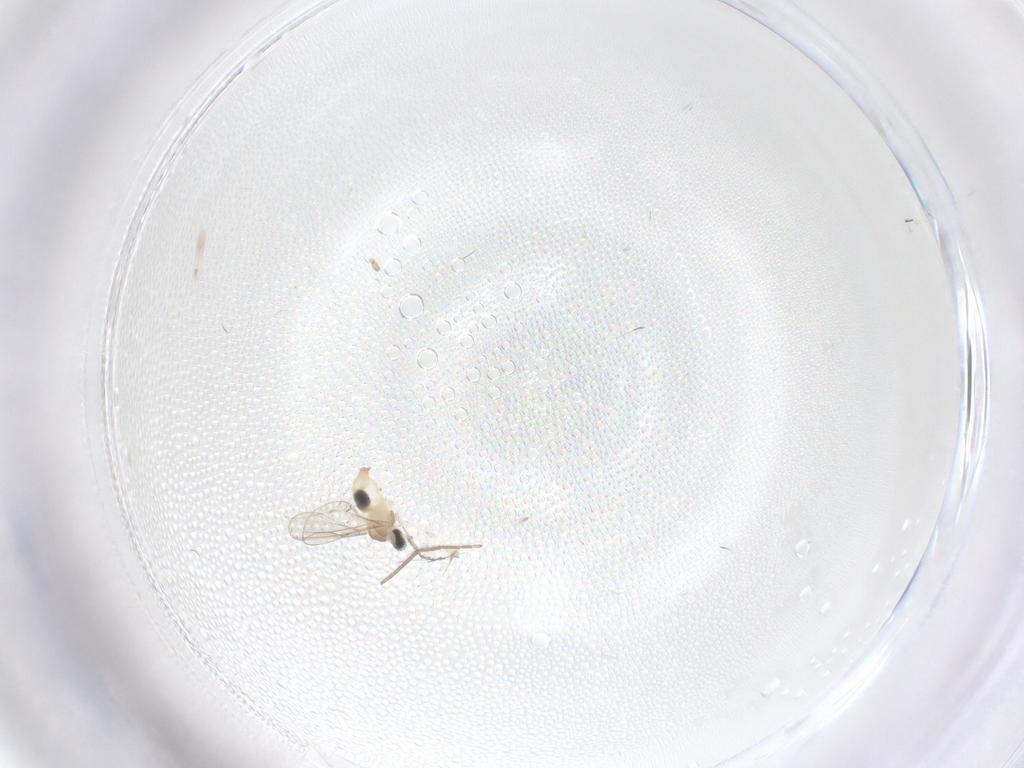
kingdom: Animalia
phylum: Arthropoda
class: Insecta
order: Diptera
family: Chironomidae
